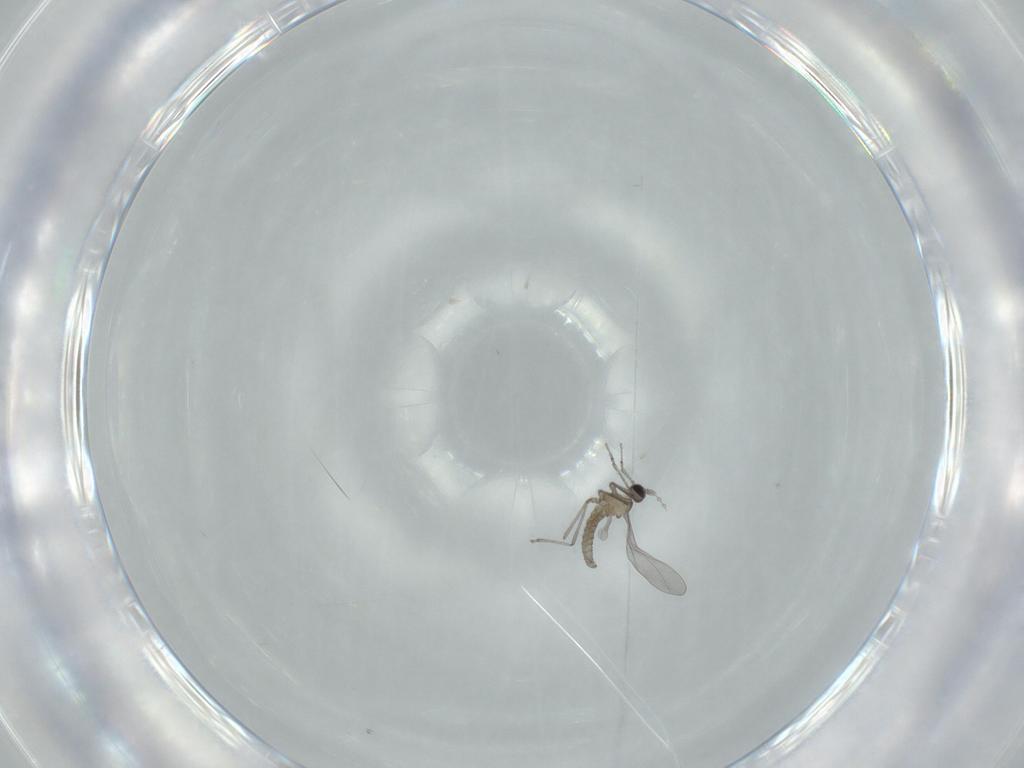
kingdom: Animalia
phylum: Arthropoda
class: Insecta
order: Diptera
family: Cecidomyiidae
